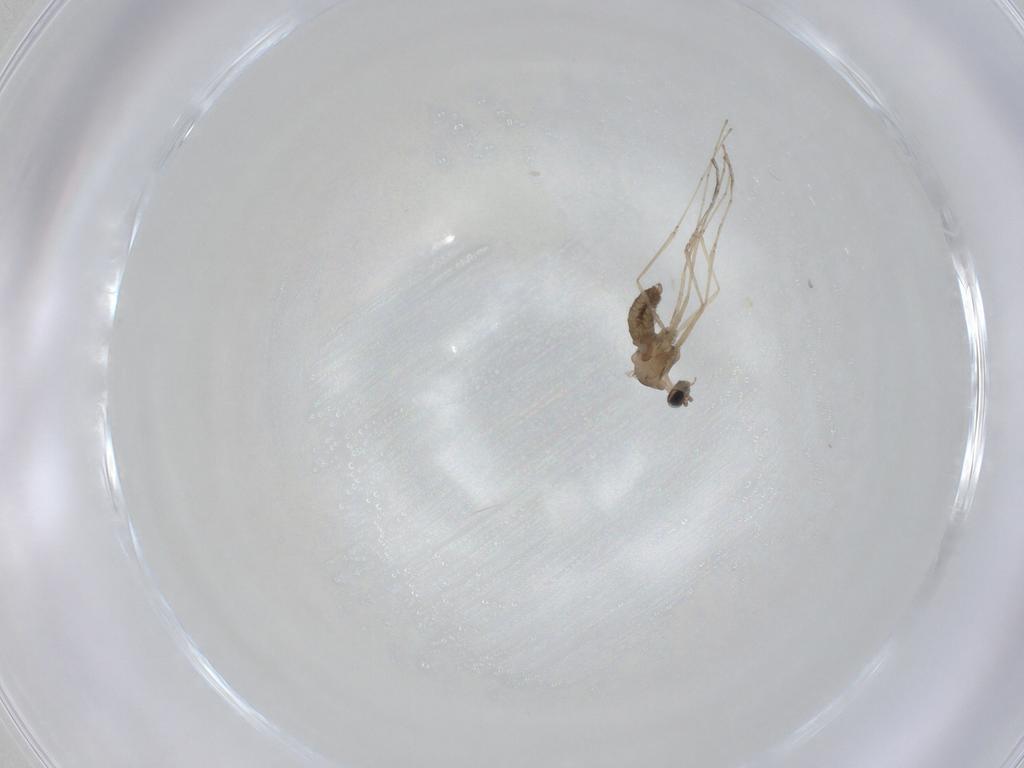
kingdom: Animalia
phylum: Arthropoda
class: Insecta
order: Diptera
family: Cecidomyiidae
